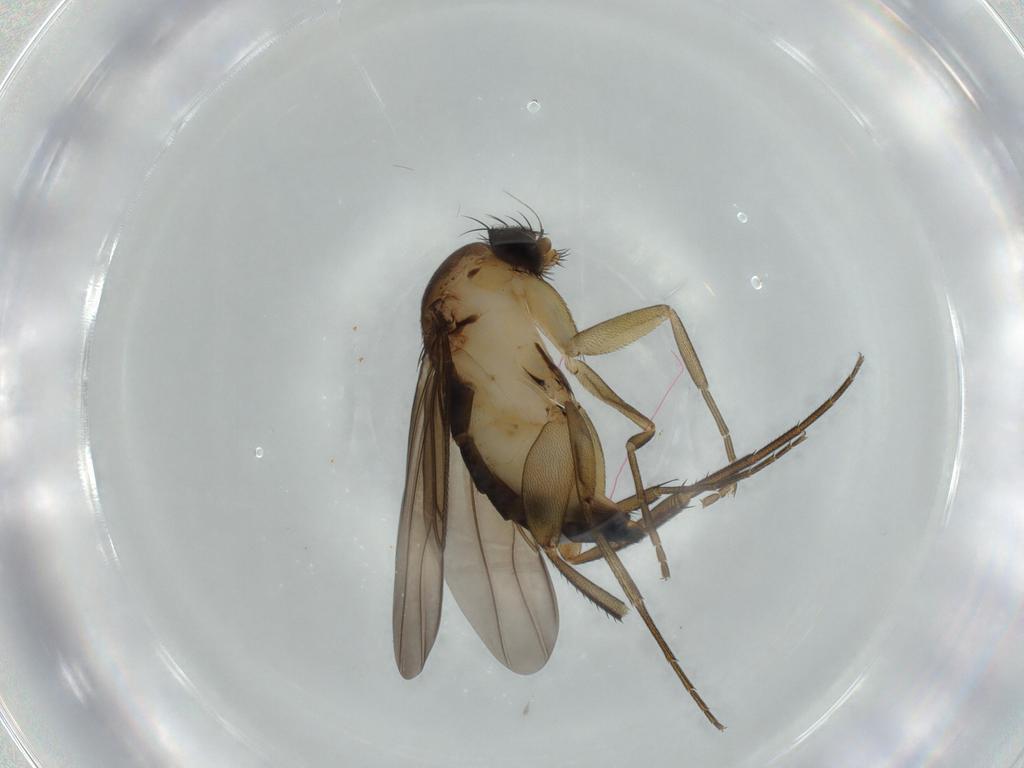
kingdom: Animalia
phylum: Arthropoda
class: Insecta
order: Diptera
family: Phoridae
